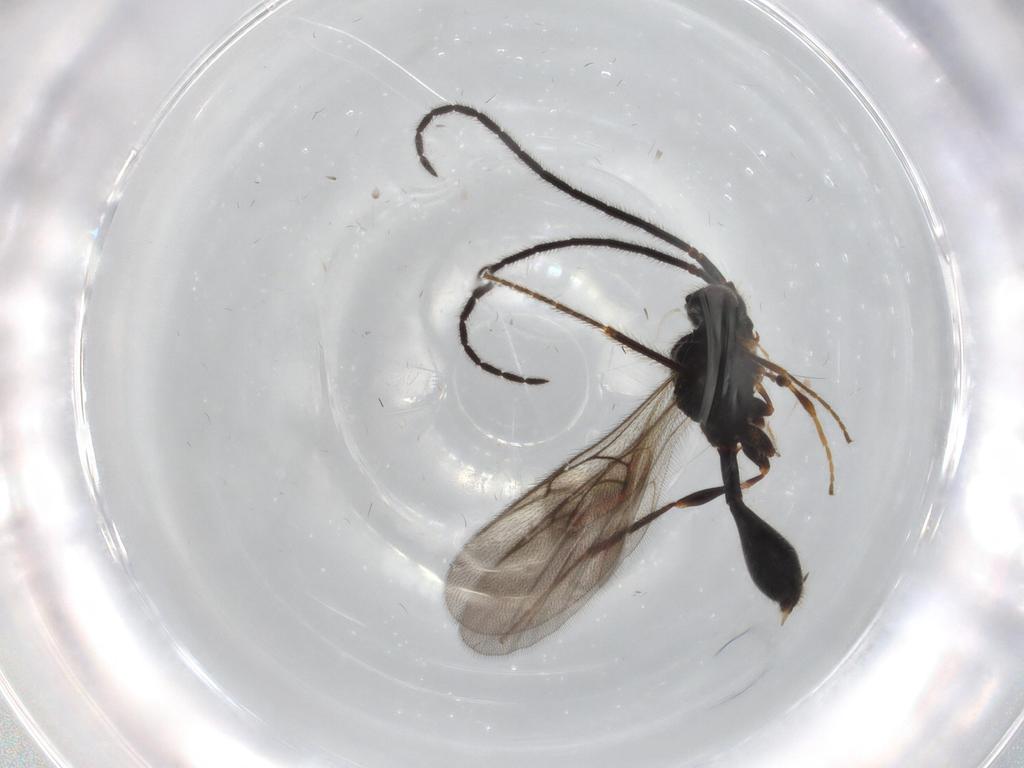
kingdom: Animalia
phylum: Arthropoda
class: Insecta
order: Hymenoptera
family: Diapriidae
